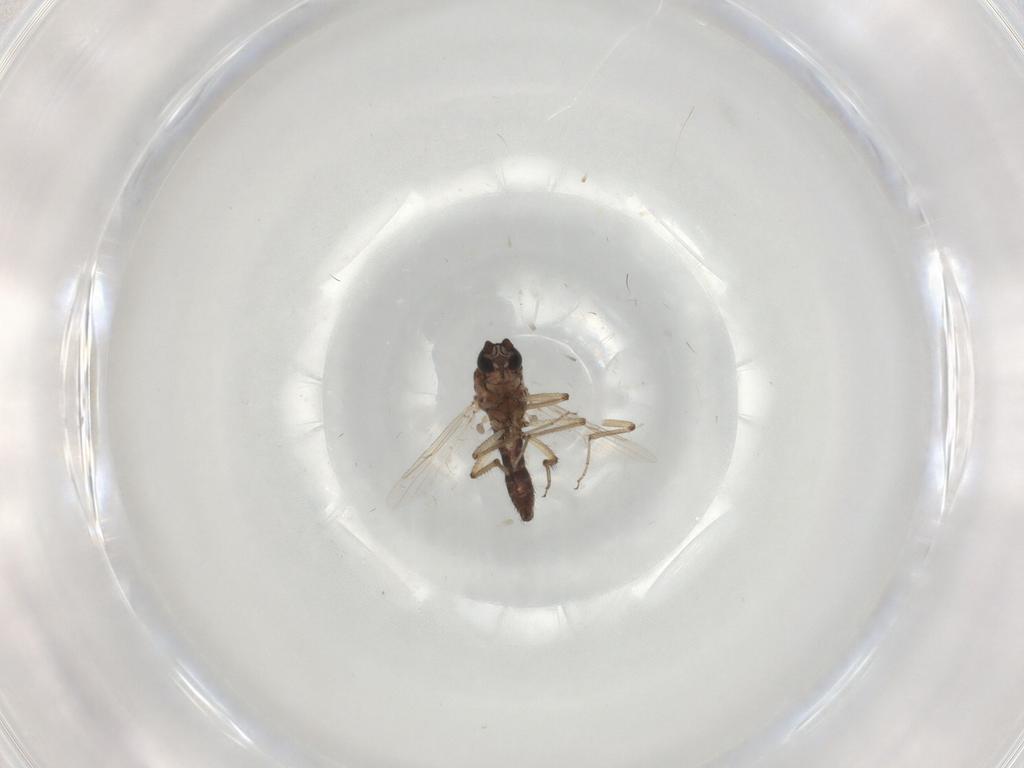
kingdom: Animalia
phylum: Arthropoda
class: Insecta
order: Diptera
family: Ceratopogonidae
